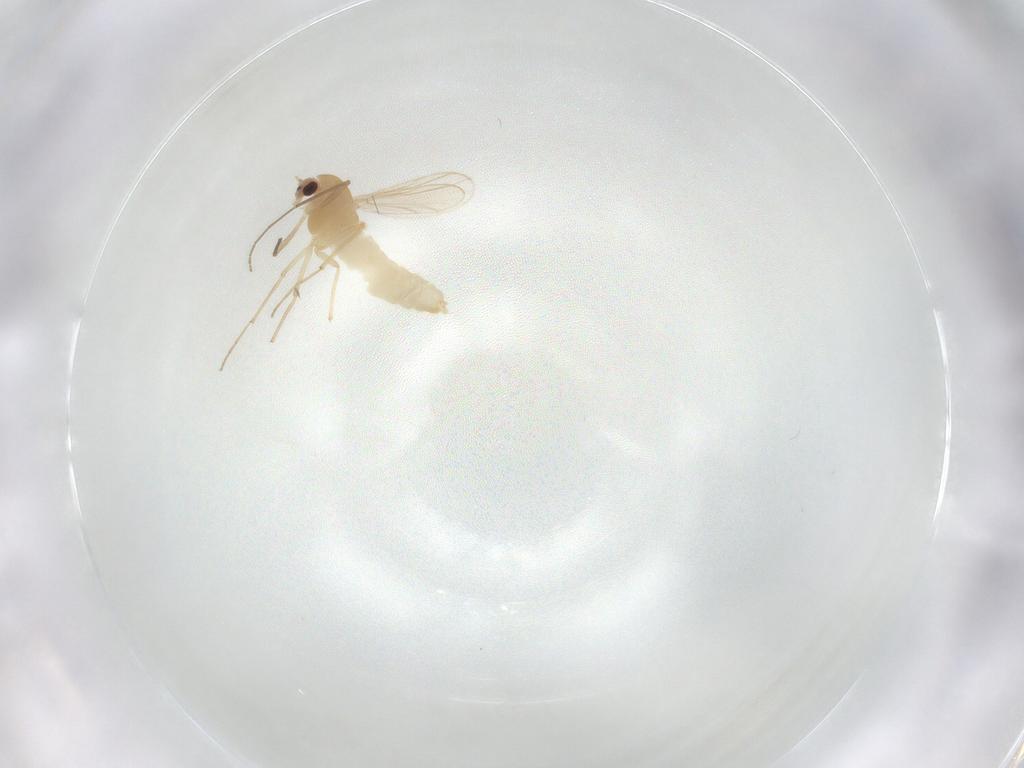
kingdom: Animalia
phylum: Arthropoda
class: Insecta
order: Diptera
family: Chironomidae
